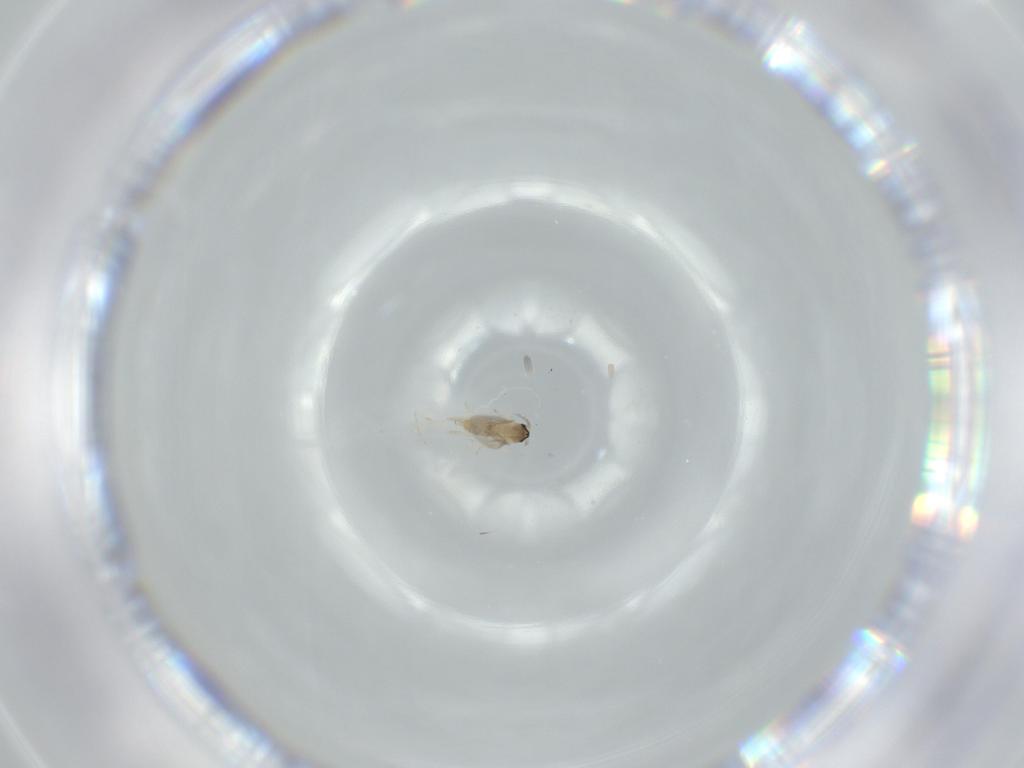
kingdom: Animalia
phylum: Arthropoda
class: Insecta
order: Diptera
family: Cecidomyiidae
